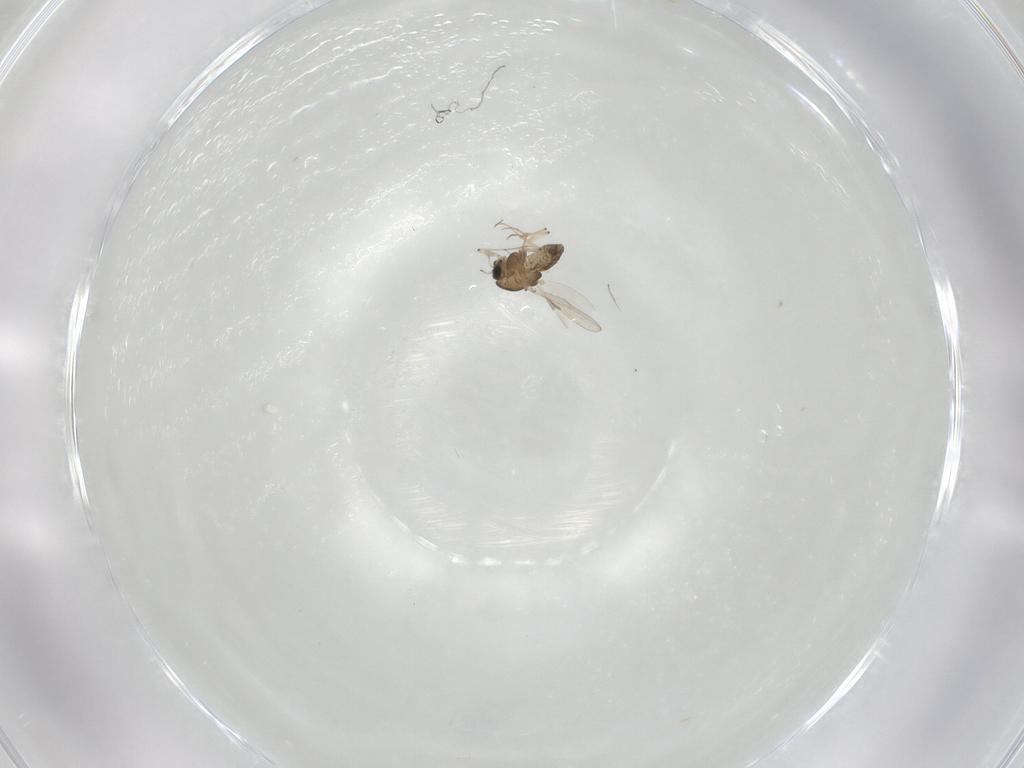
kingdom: Animalia
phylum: Arthropoda
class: Insecta
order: Diptera
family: Chironomidae
